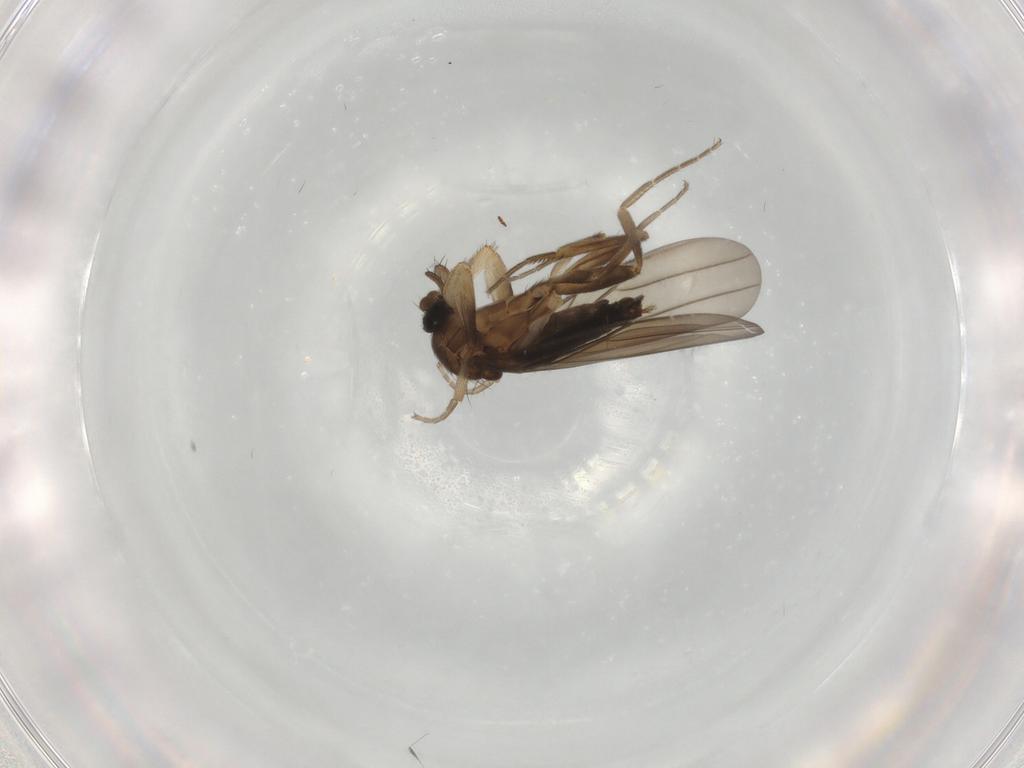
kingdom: Animalia
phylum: Arthropoda
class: Insecta
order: Diptera
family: Phoridae
